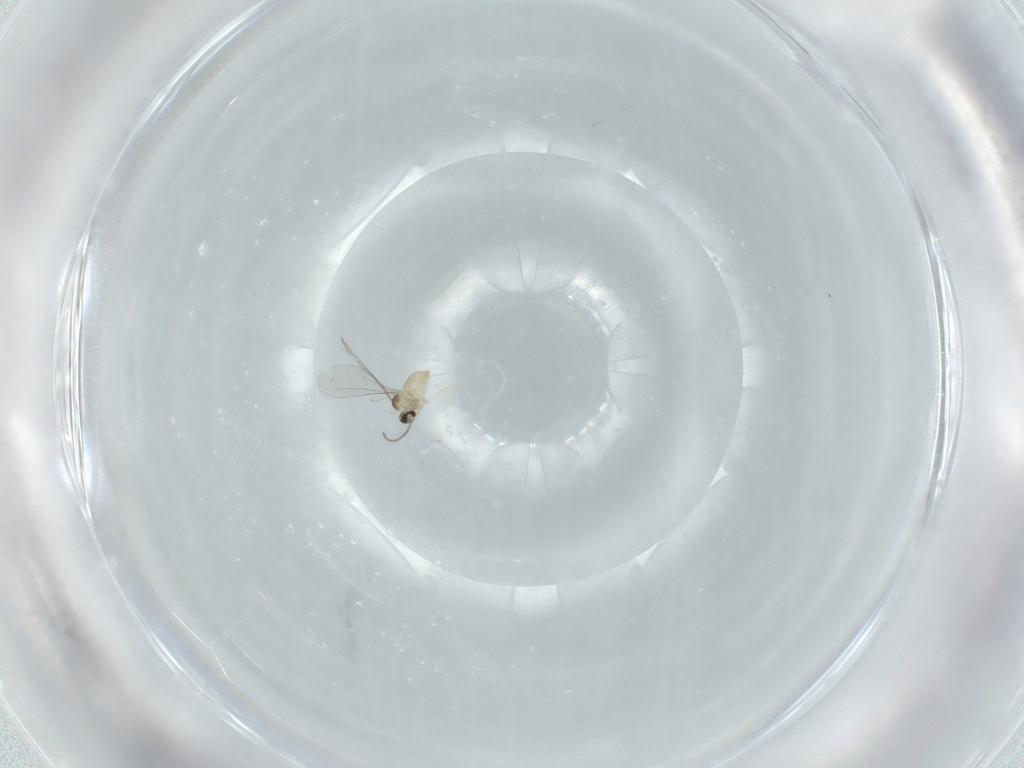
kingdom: Animalia
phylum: Arthropoda
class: Insecta
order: Diptera
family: Cecidomyiidae
